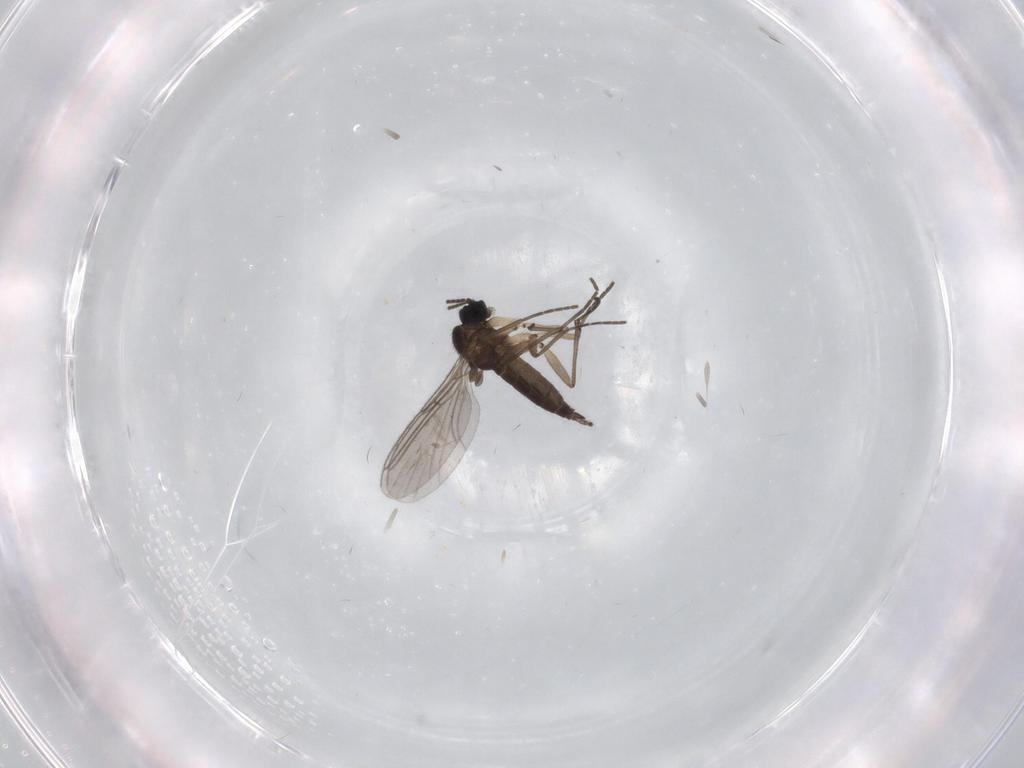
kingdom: Animalia
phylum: Arthropoda
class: Insecta
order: Diptera
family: Sciaridae
